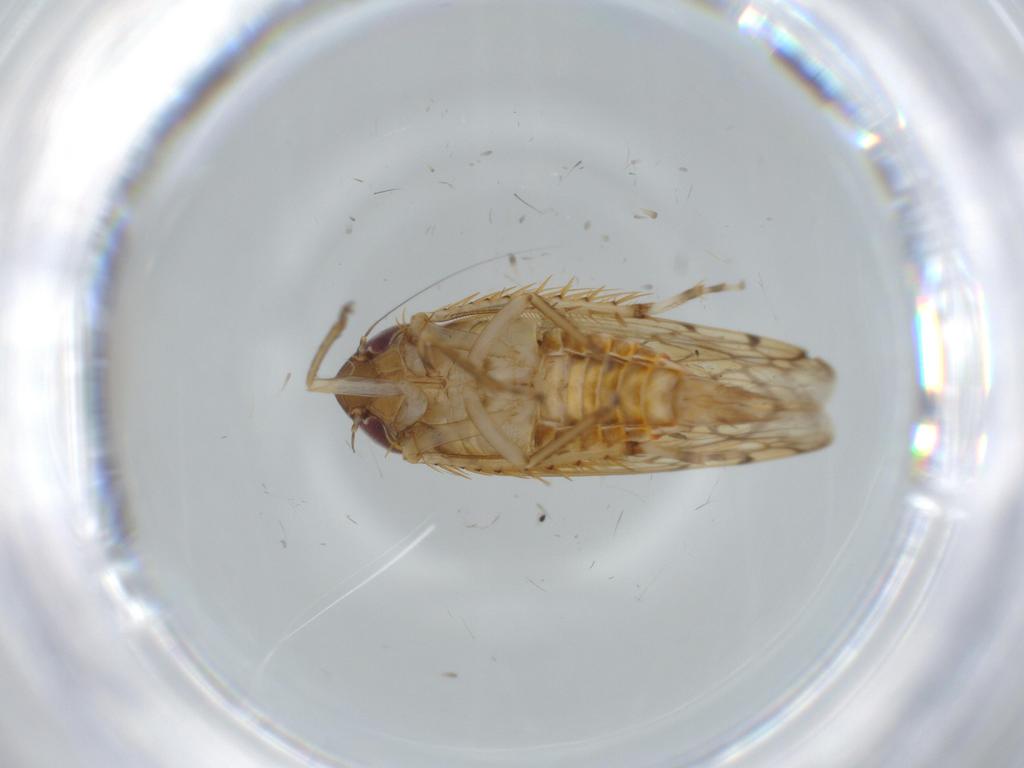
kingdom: Animalia
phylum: Arthropoda
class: Insecta
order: Hemiptera
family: Cicadellidae
